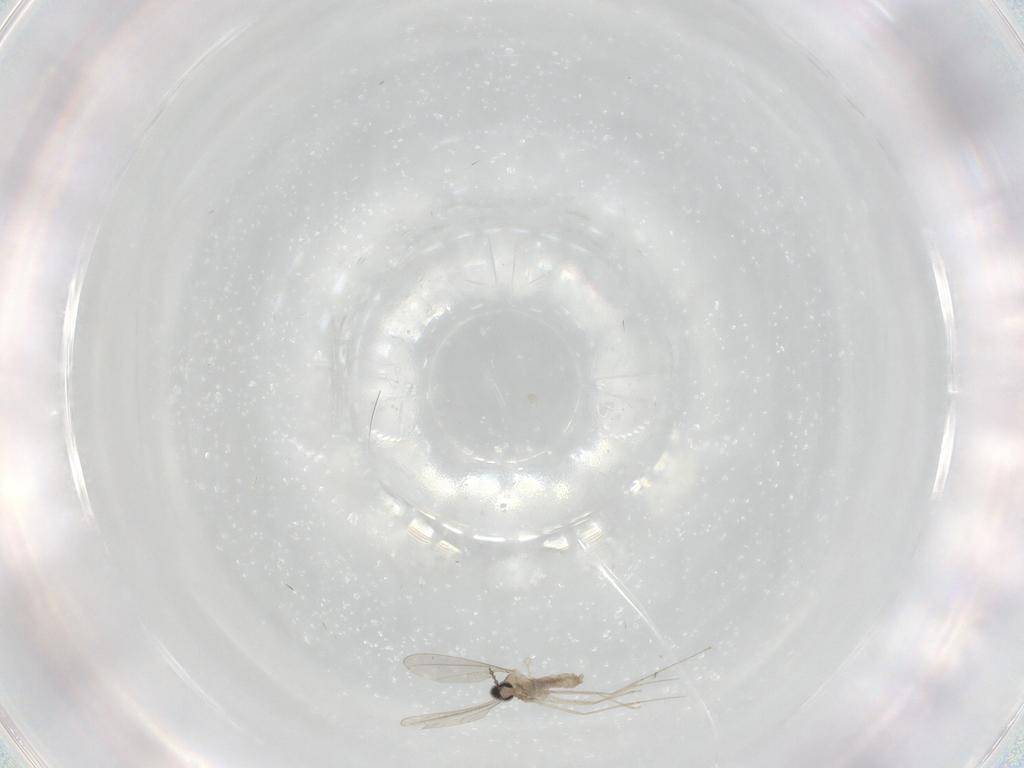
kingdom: Animalia
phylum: Arthropoda
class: Insecta
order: Diptera
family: Cecidomyiidae
